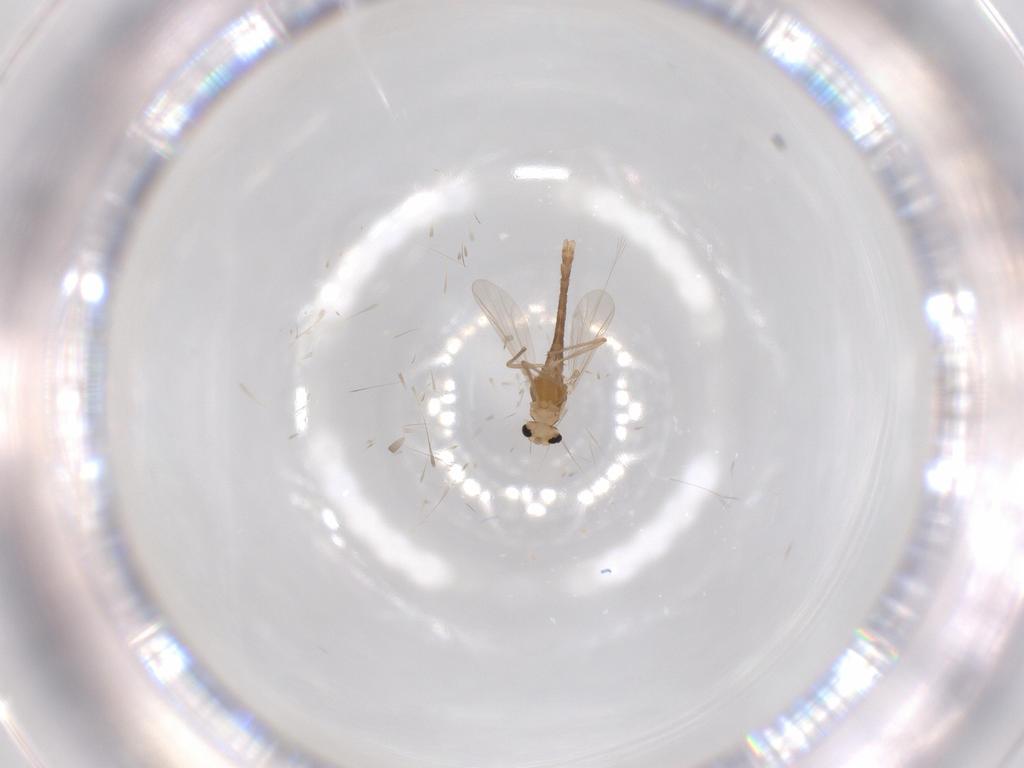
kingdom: Animalia
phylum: Arthropoda
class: Insecta
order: Diptera
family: Chironomidae
